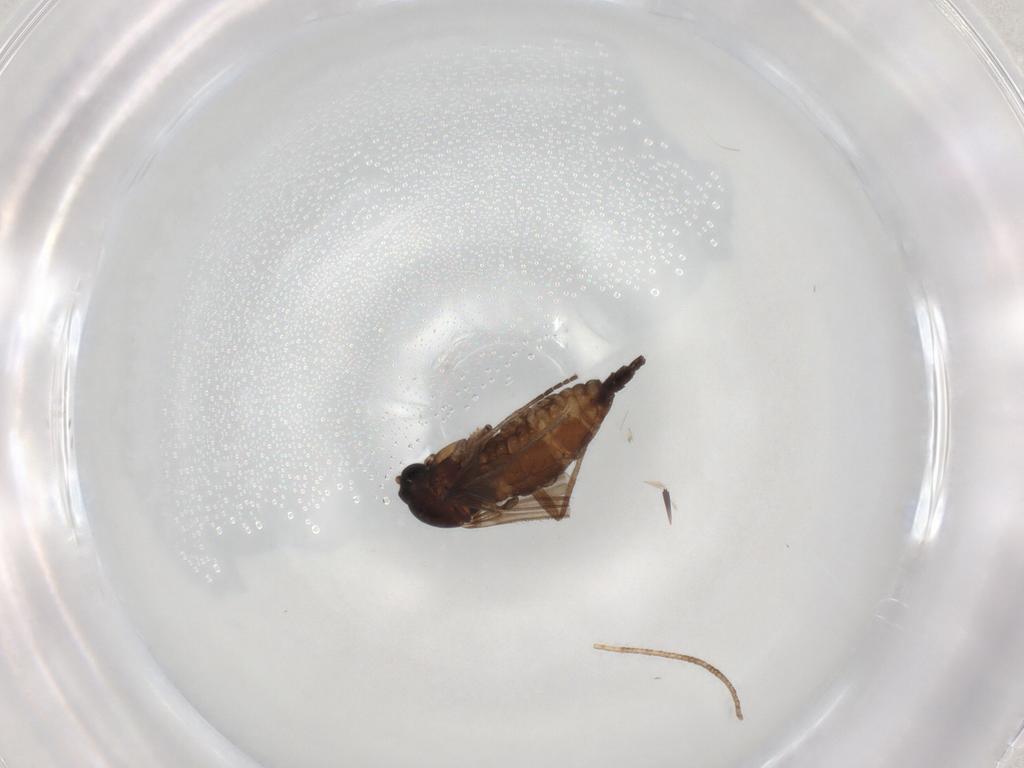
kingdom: Animalia
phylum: Arthropoda
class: Insecta
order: Diptera
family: Sciaridae
